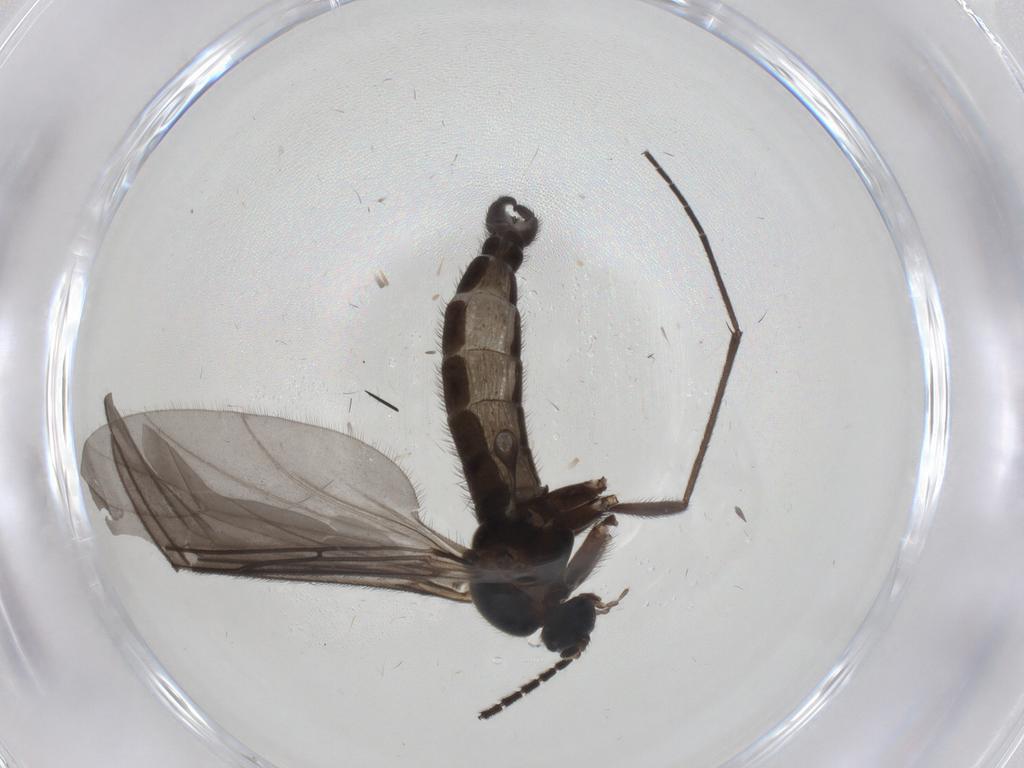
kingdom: Animalia
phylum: Arthropoda
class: Insecta
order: Diptera
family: Sciaridae
